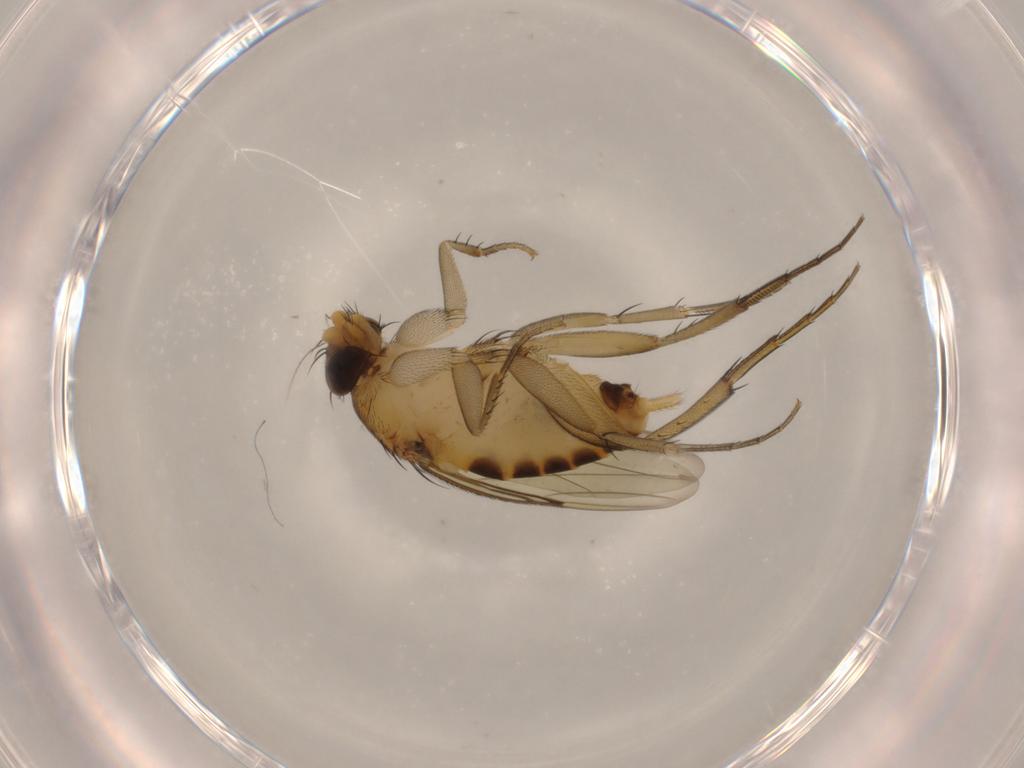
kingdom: Animalia
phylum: Arthropoda
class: Insecta
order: Diptera
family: Phoridae
